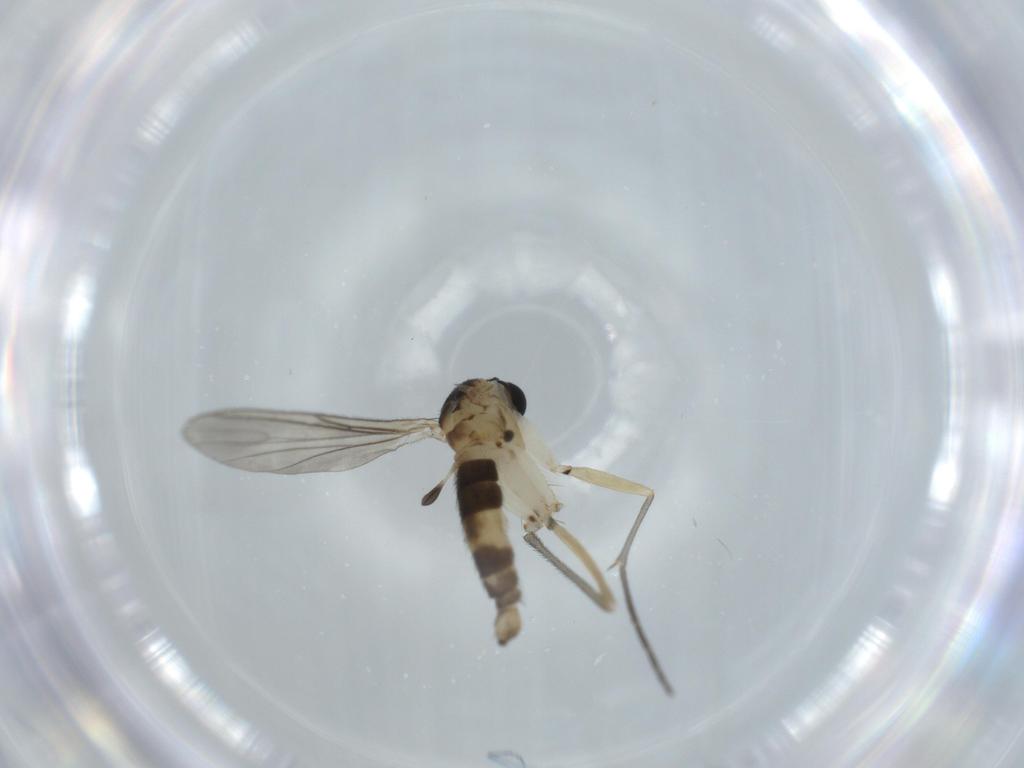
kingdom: Animalia
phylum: Arthropoda
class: Insecta
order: Diptera
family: Sciaridae
